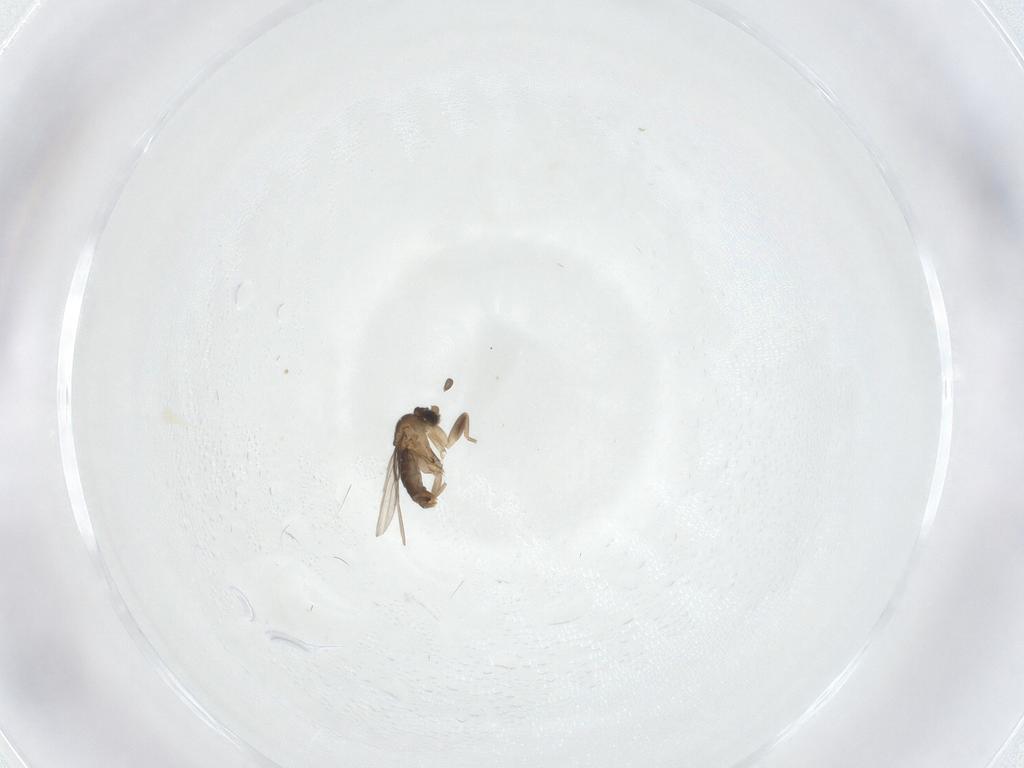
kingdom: Animalia
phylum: Arthropoda
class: Insecta
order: Diptera
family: Phoridae
